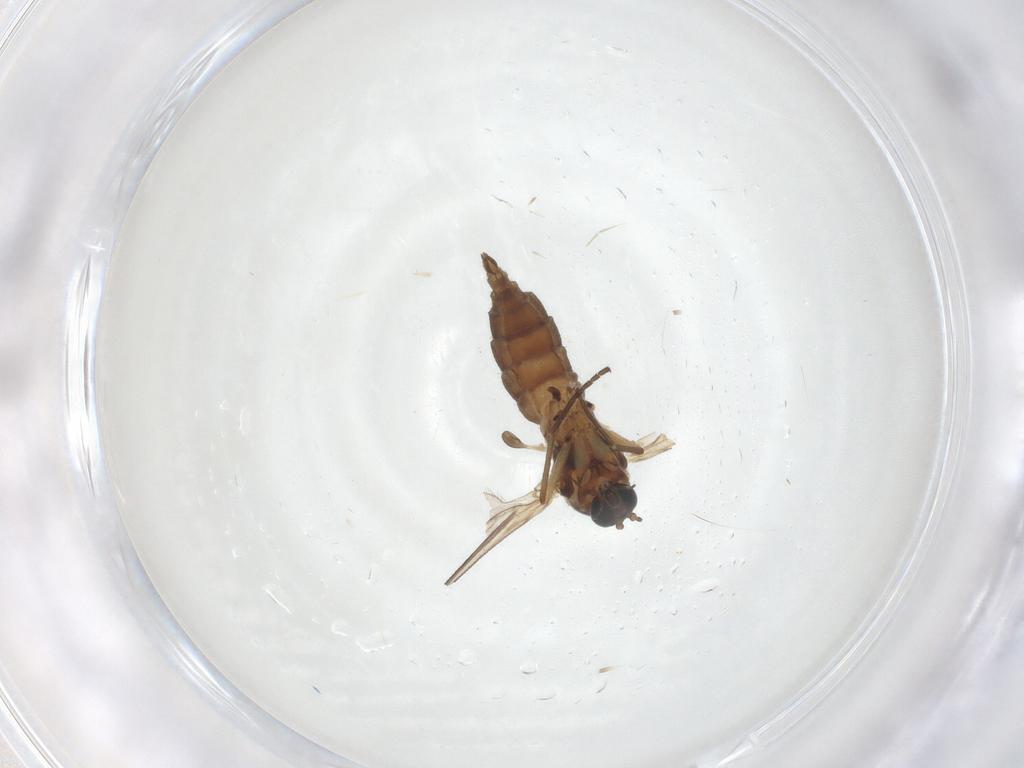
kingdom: Animalia
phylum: Arthropoda
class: Insecta
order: Diptera
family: Sciaridae
